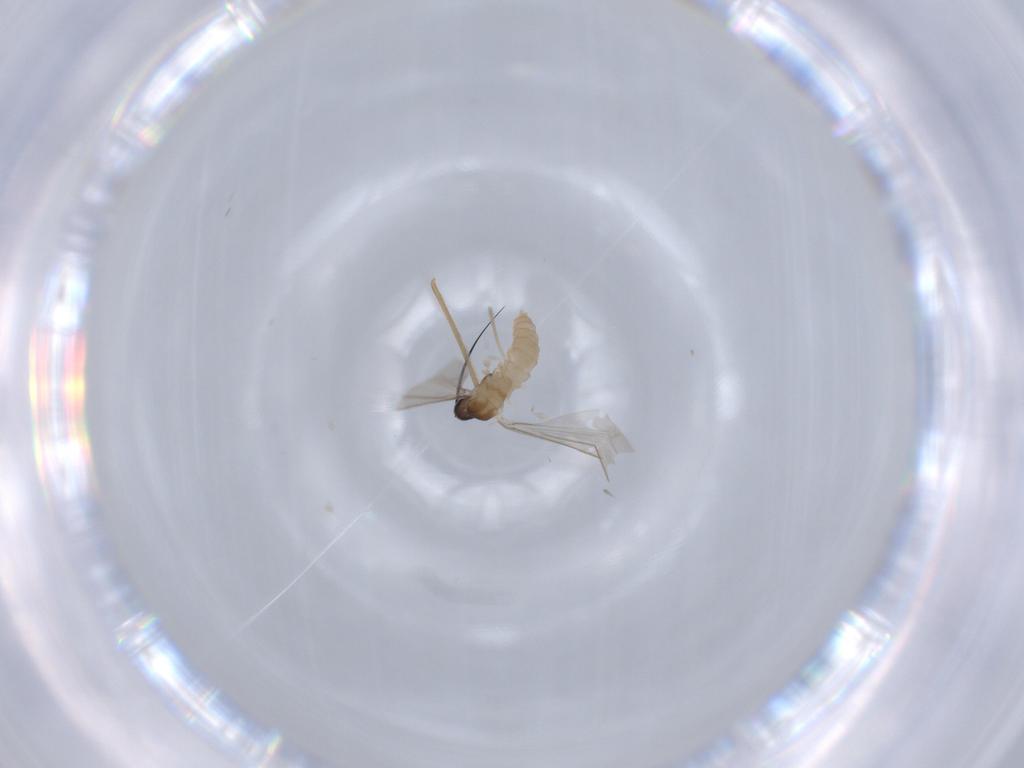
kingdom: Animalia
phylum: Arthropoda
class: Insecta
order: Diptera
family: Cecidomyiidae
